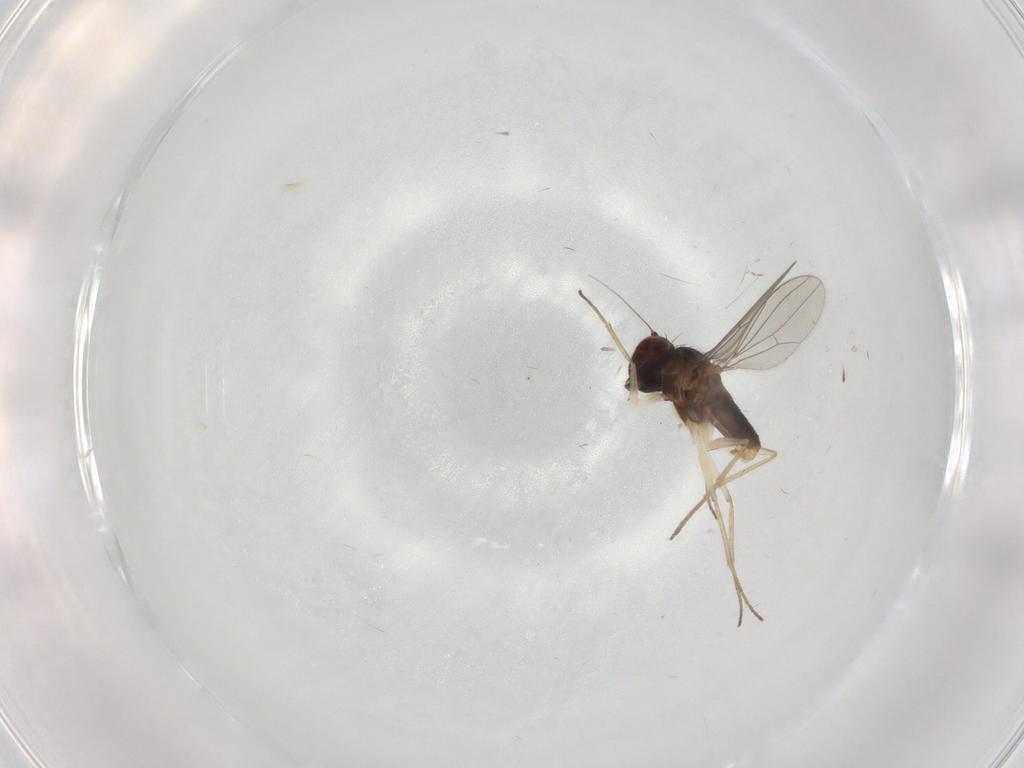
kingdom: Animalia
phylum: Arthropoda
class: Insecta
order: Diptera
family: Dolichopodidae
